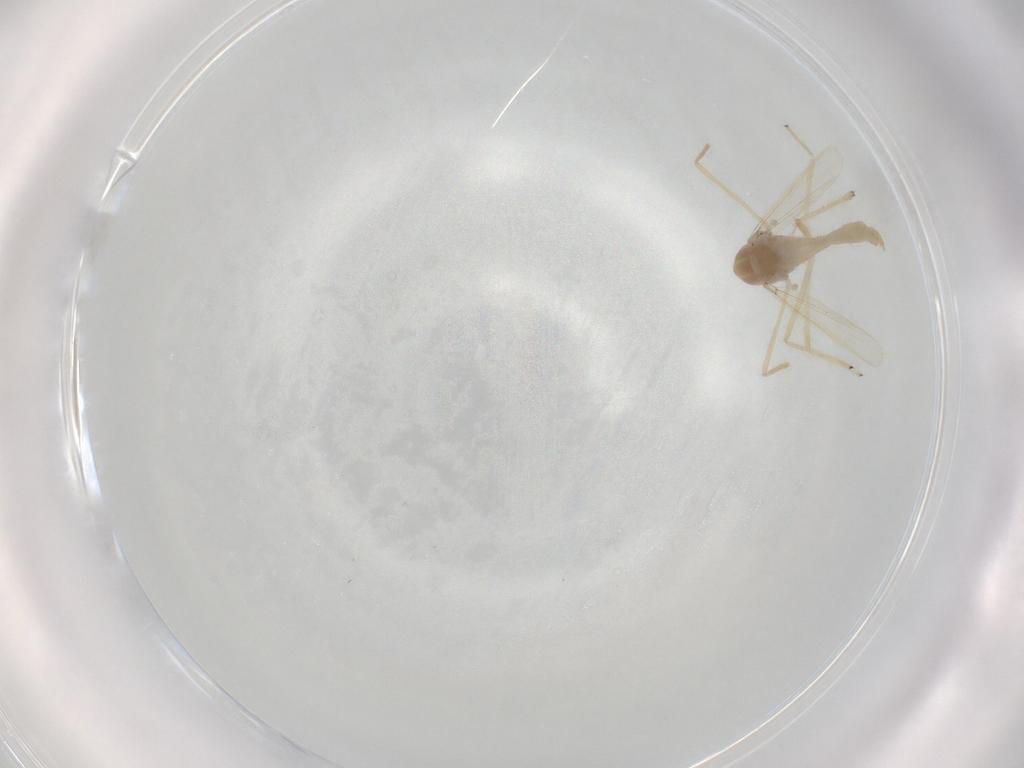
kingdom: Animalia
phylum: Arthropoda
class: Insecta
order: Diptera
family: Chironomidae
